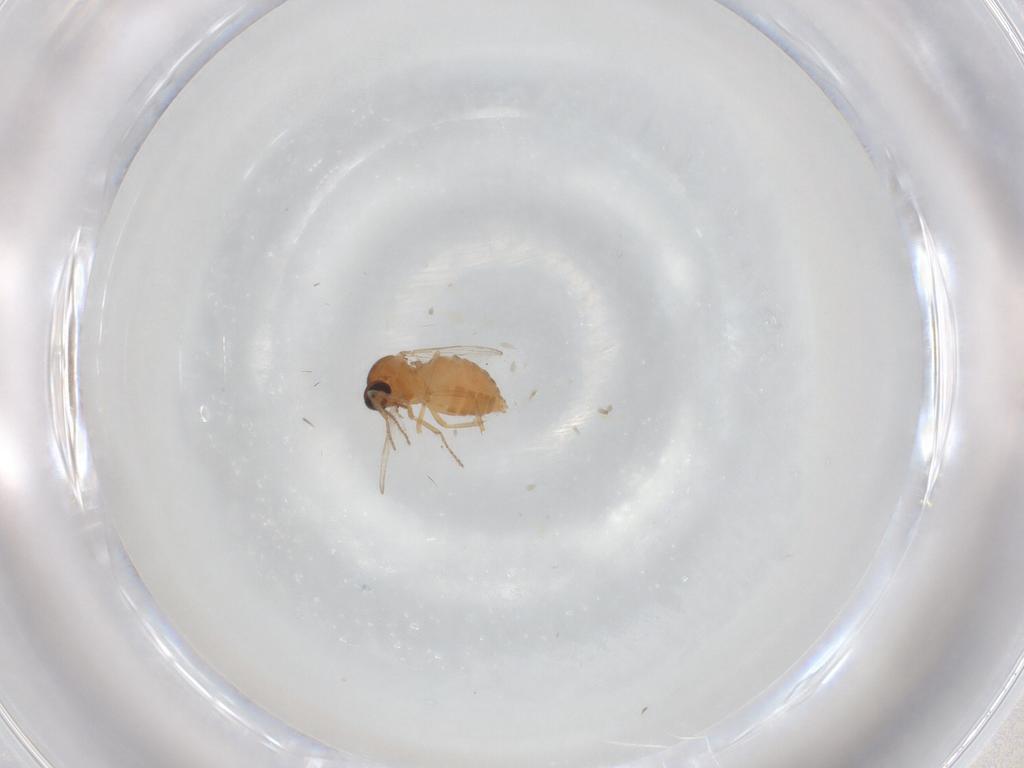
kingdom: Animalia
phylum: Arthropoda
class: Insecta
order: Diptera
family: Ceratopogonidae
